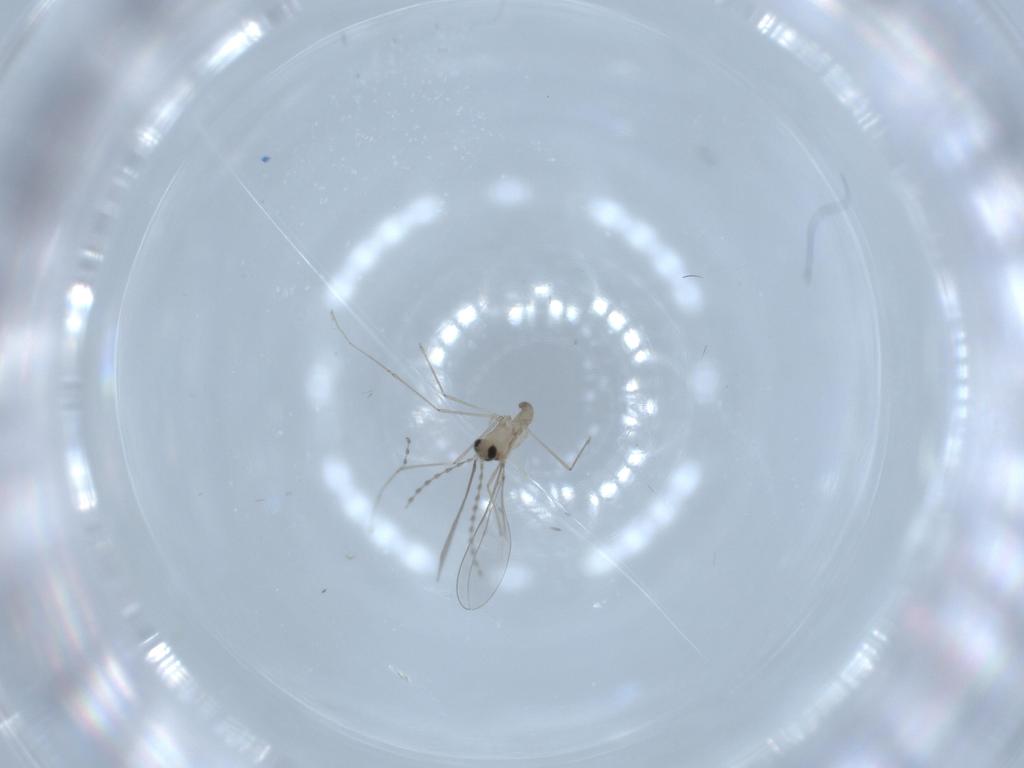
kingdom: Animalia
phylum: Arthropoda
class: Insecta
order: Diptera
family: Cecidomyiidae
